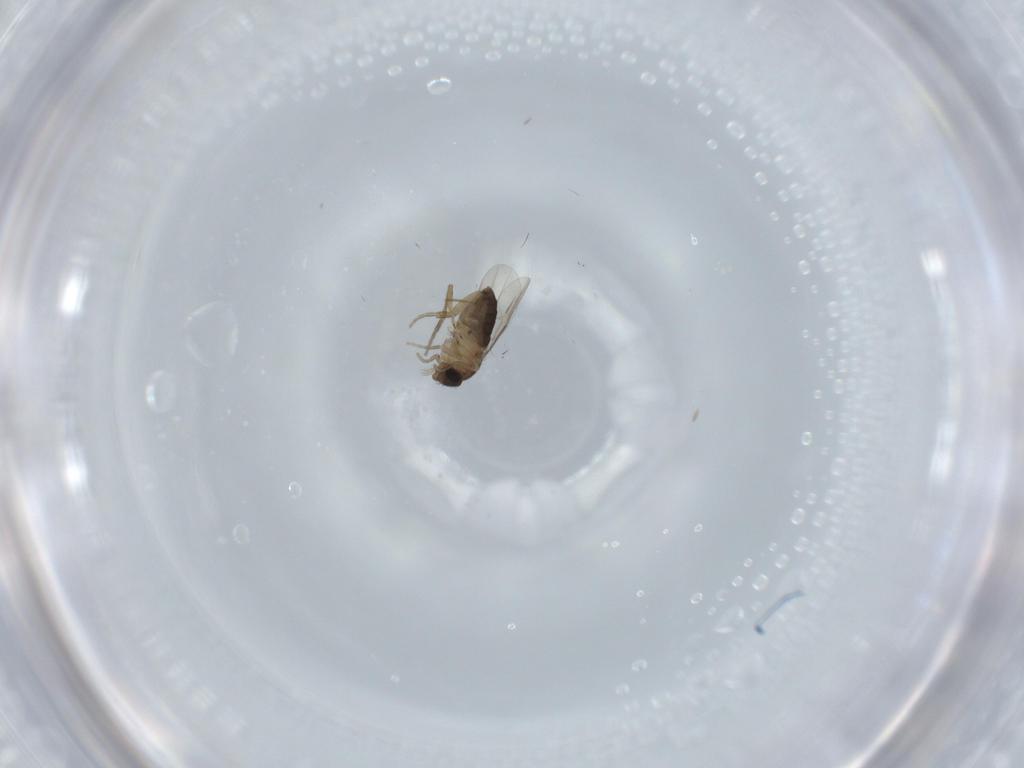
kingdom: Animalia
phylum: Arthropoda
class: Insecta
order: Diptera
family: Phoridae
